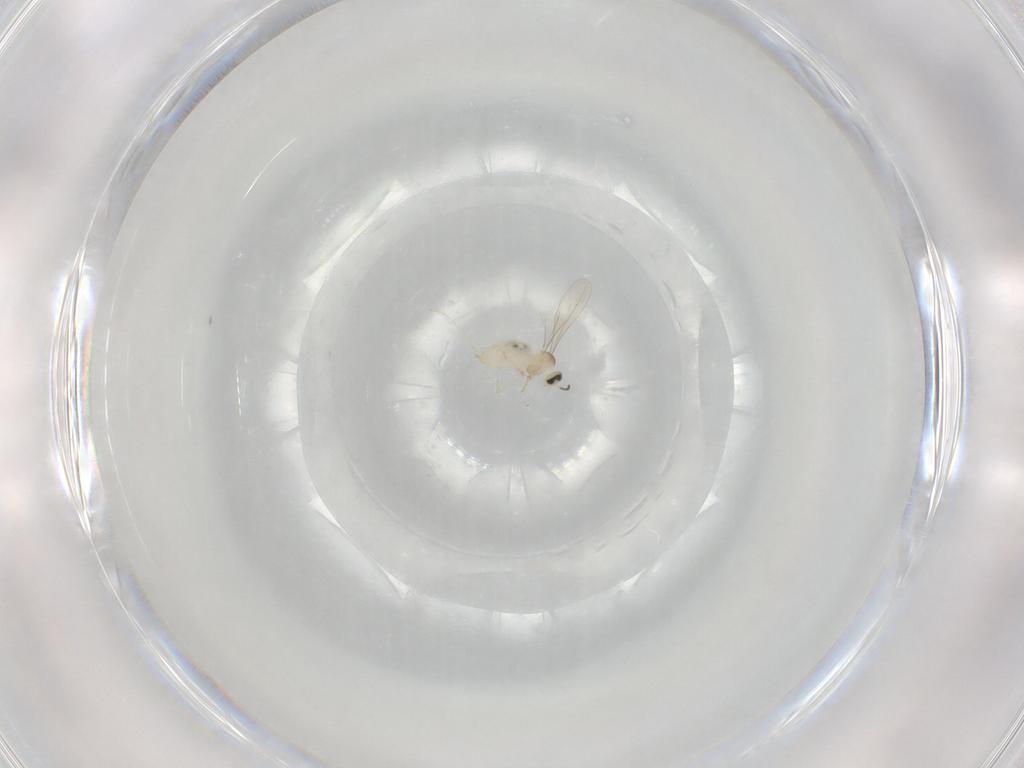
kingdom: Animalia
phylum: Arthropoda
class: Insecta
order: Diptera
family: Cecidomyiidae
